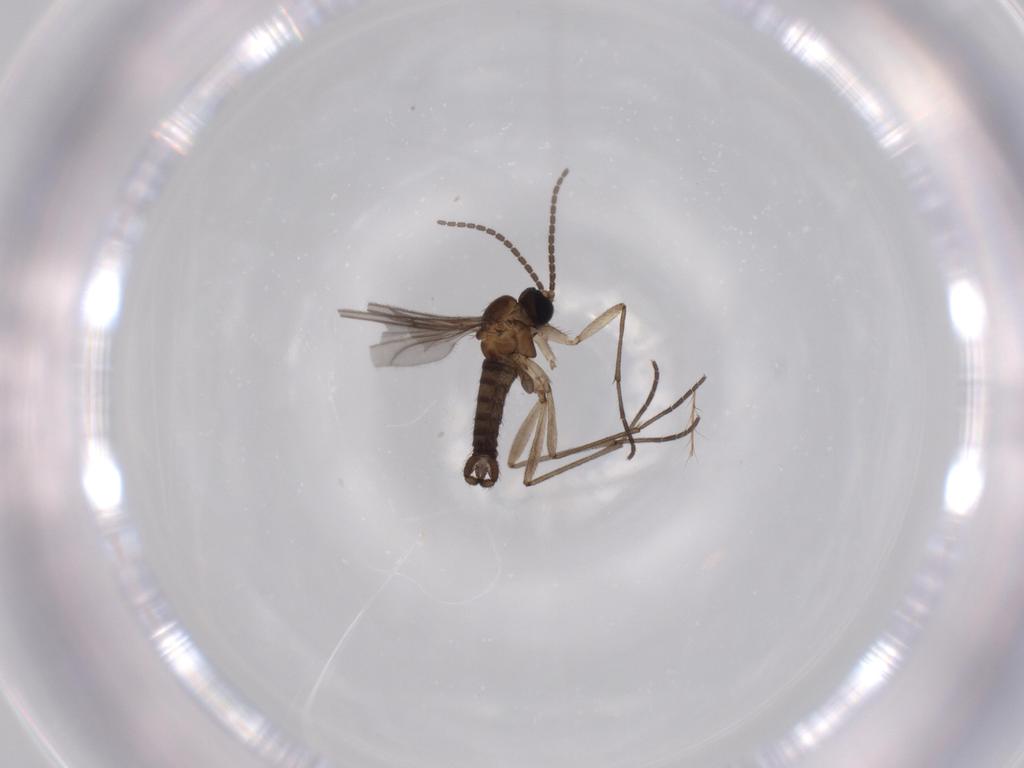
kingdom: Animalia
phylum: Arthropoda
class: Insecta
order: Diptera
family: Sciaridae
